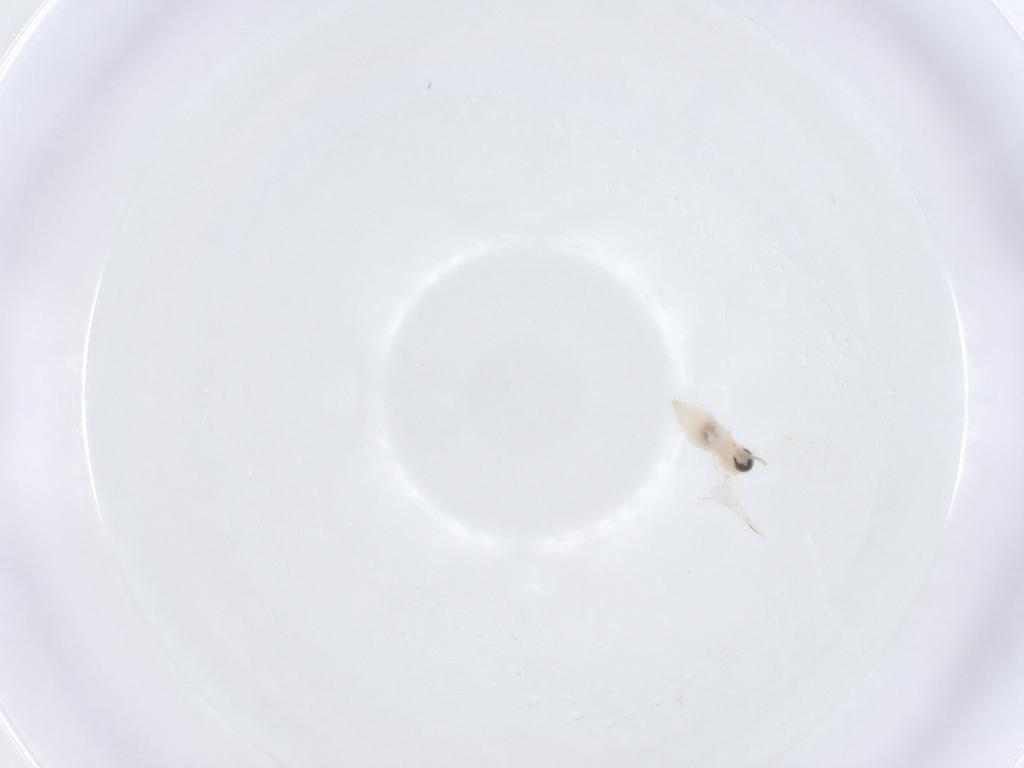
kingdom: Animalia
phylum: Arthropoda
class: Insecta
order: Diptera
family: Cecidomyiidae
